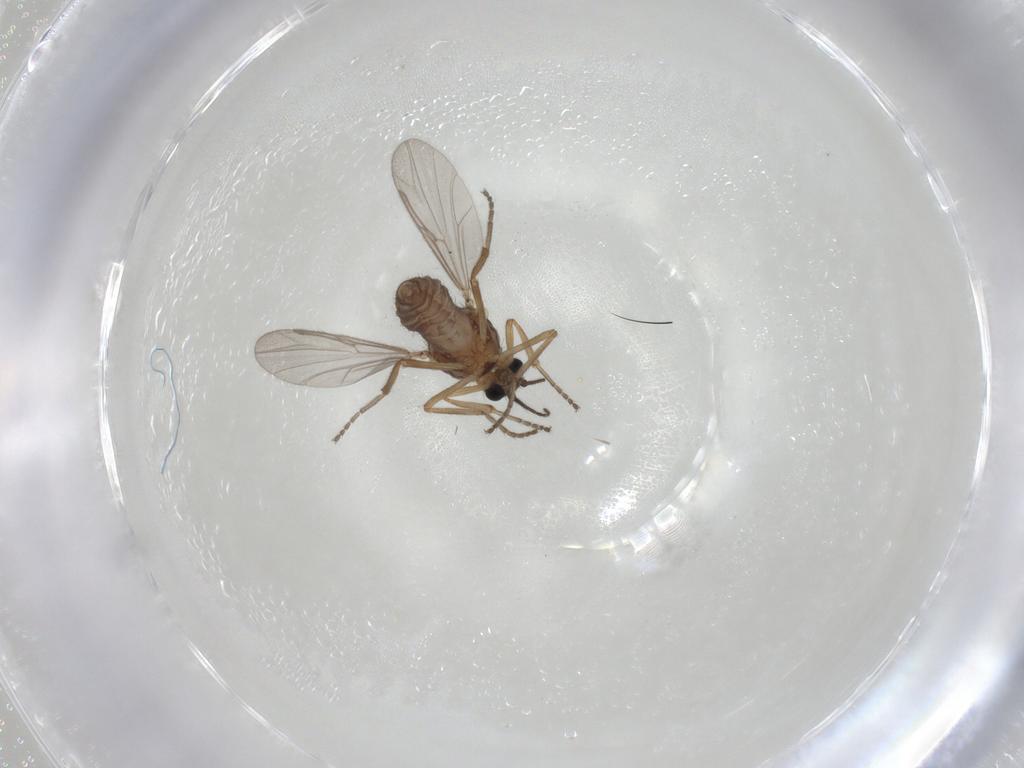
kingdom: Animalia
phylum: Arthropoda
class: Insecta
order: Diptera
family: Ceratopogonidae
